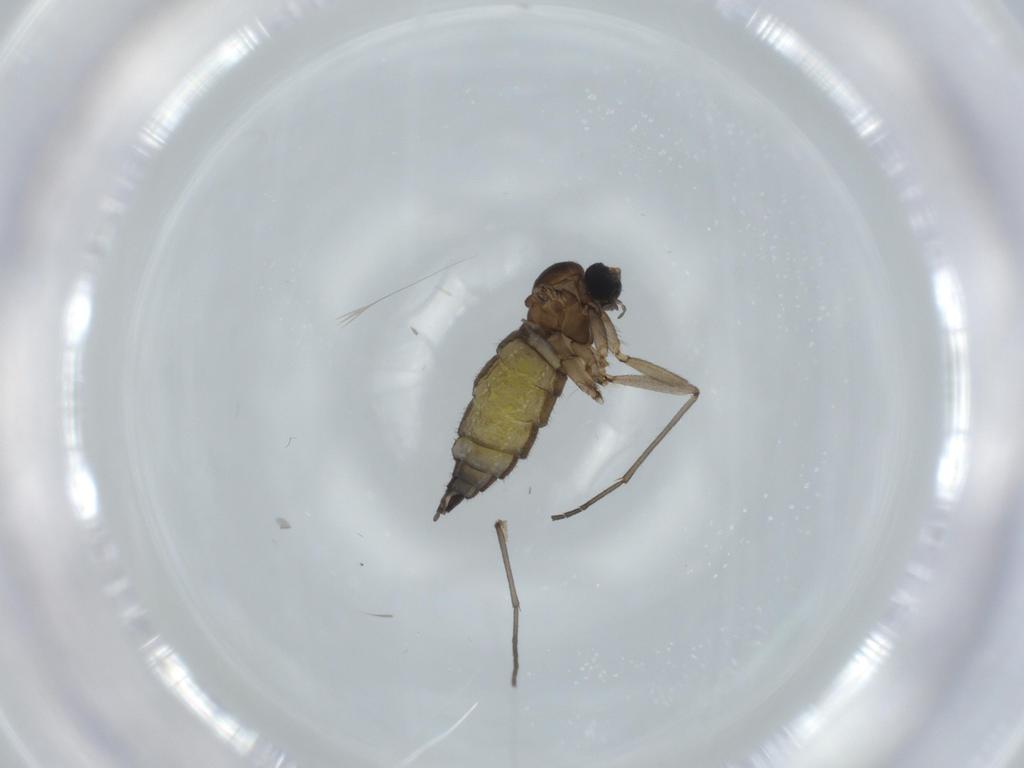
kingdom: Animalia
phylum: Arthropoda
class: Insecta
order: Diptera
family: Sciaridae
